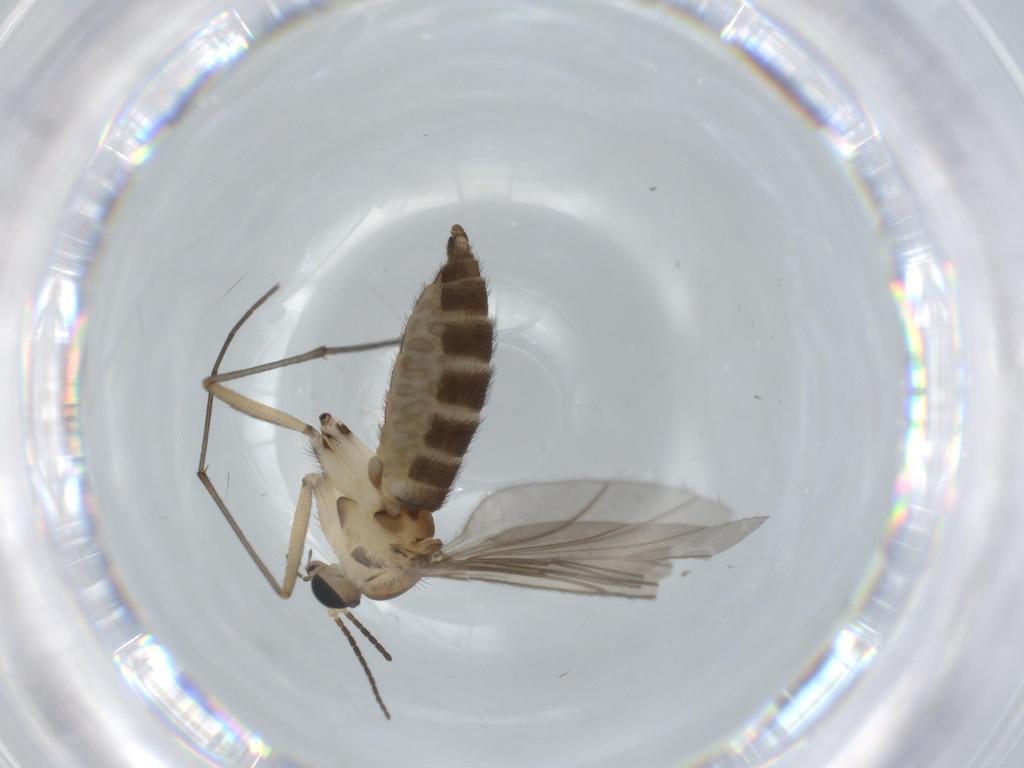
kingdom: Animalia
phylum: Arthropoda
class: Insecta
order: Diptera
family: Sciaridae
